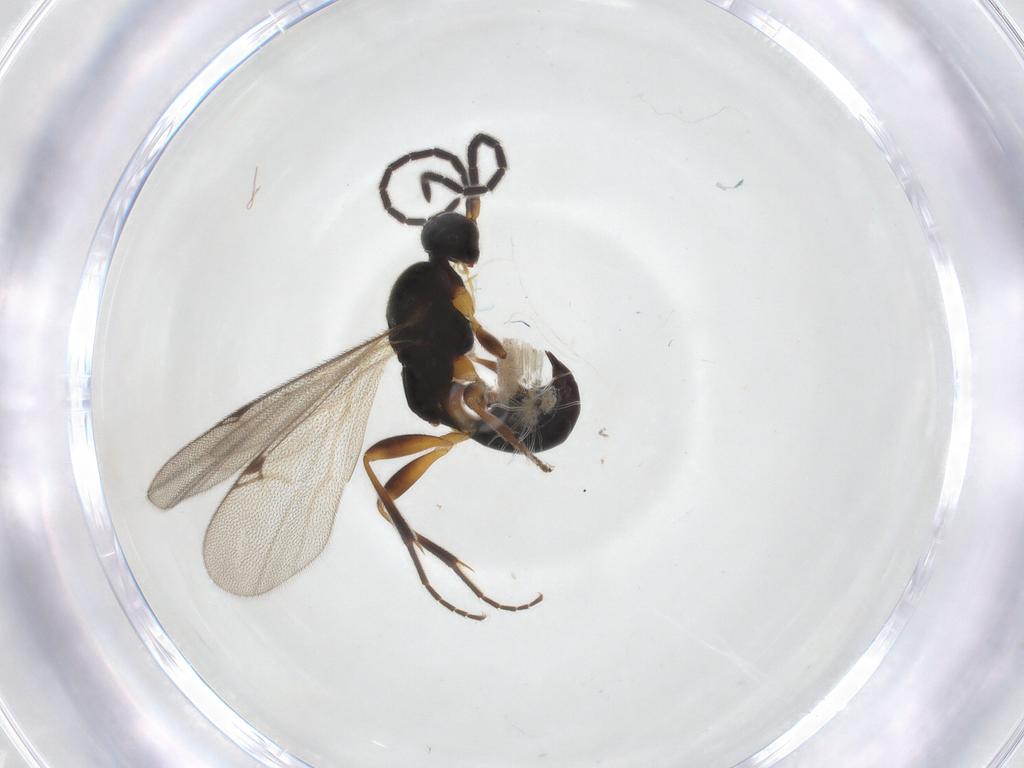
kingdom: Animalia
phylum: Arthropoda
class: Insecta
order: Hymenoptera
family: Proctotrupidae
